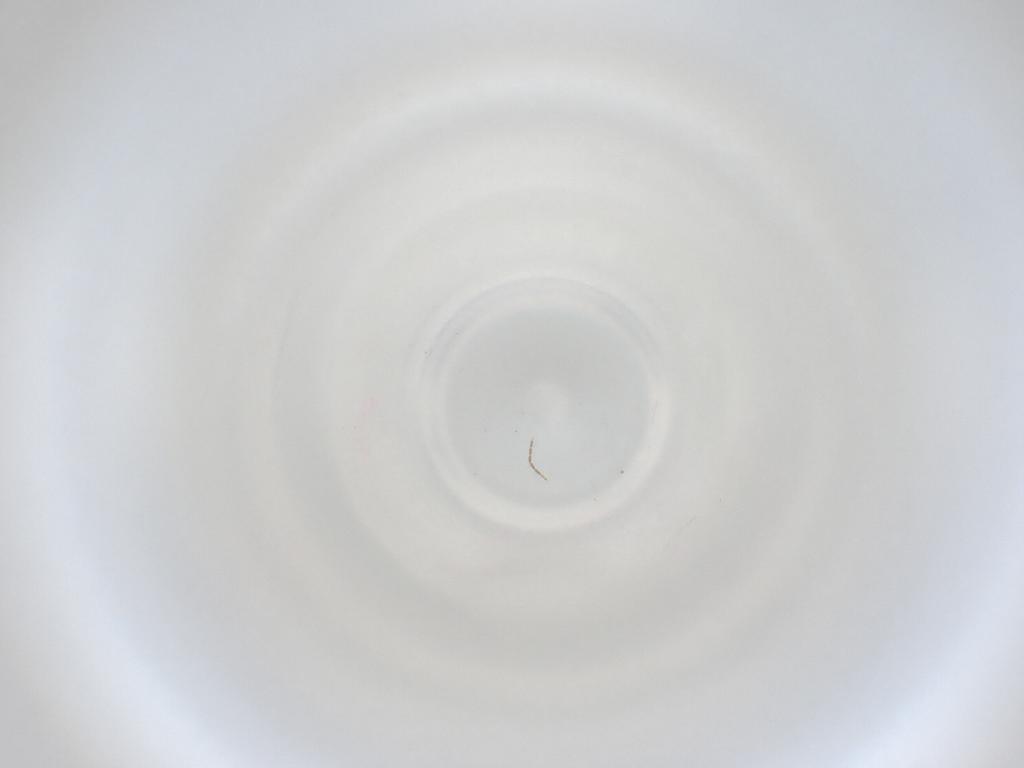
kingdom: Animalia
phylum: Arthropoda
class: Insecta
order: Diptera
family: Cecidomyiidae
